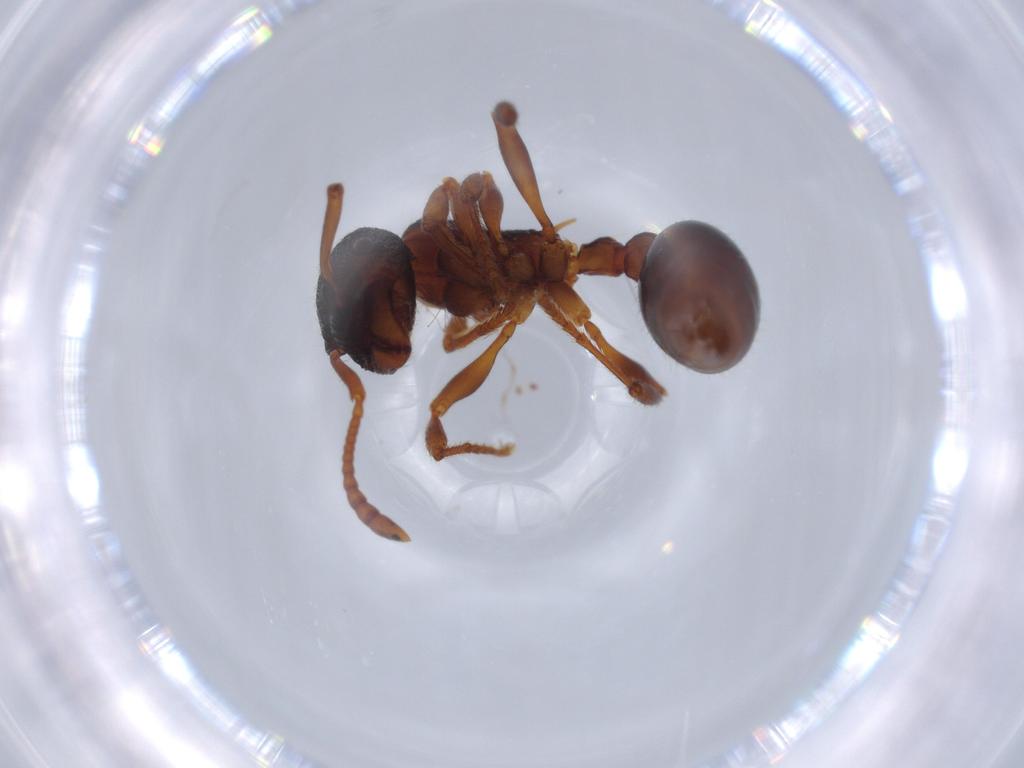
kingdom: Animalia
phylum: Arthropoda
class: Insecta
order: Hymenoptera
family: Formicidae
